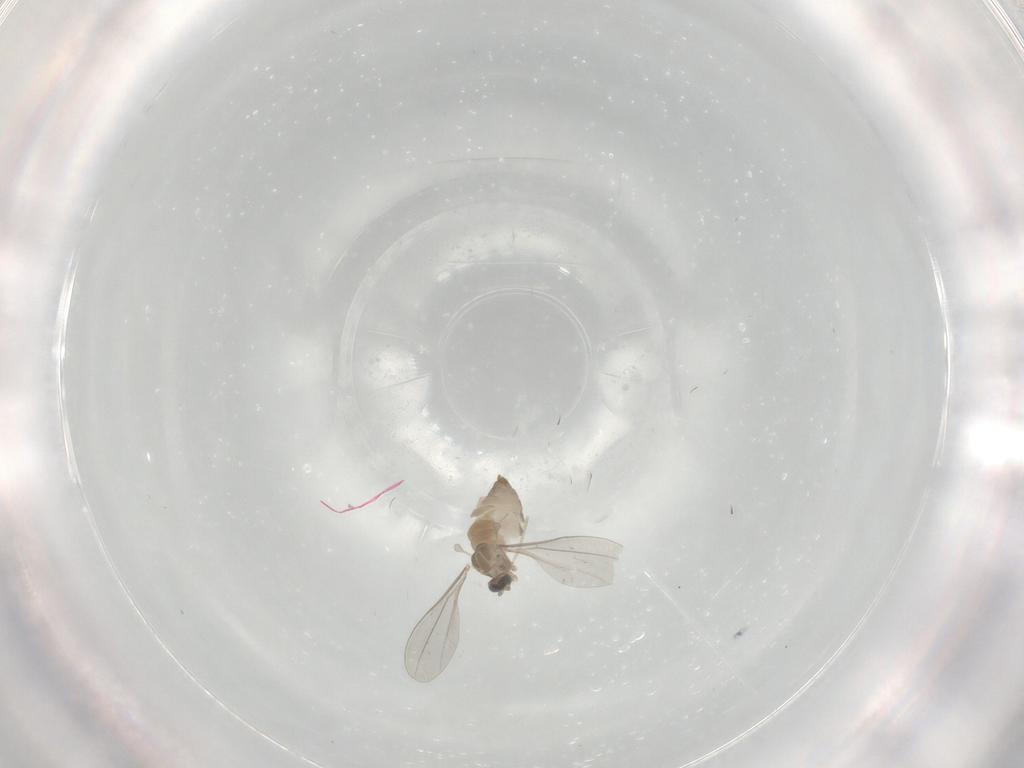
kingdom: Animalia
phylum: Arthropoda
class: Insecta
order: Diptera
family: Cecidomyiidae
